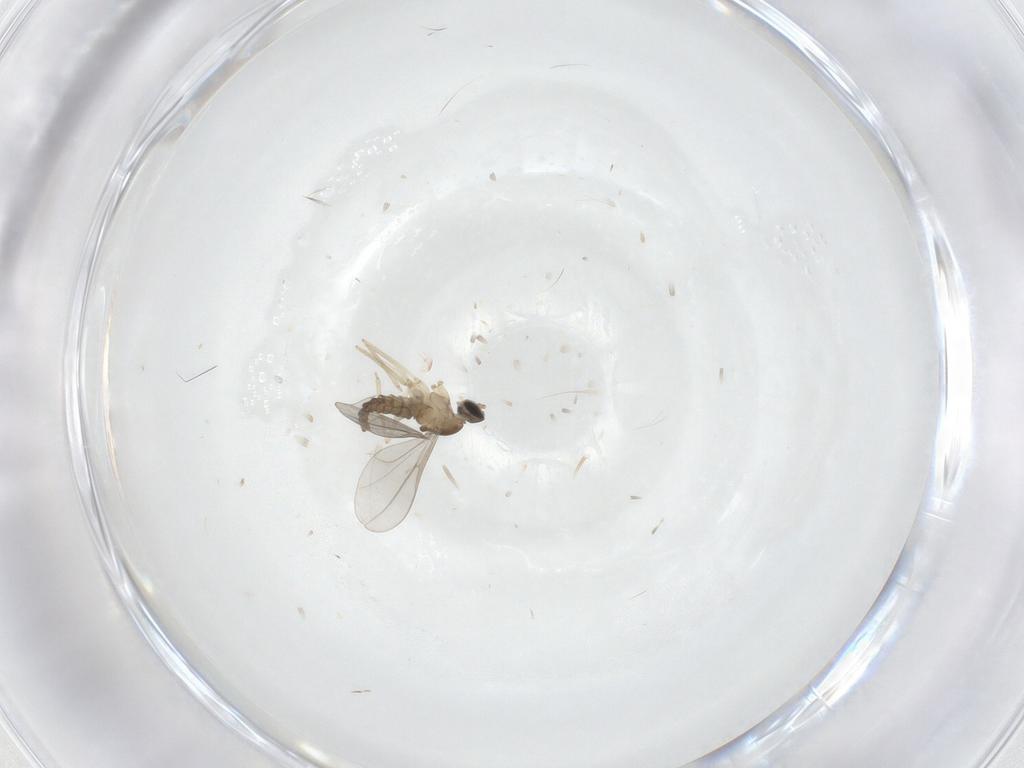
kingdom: Animalia
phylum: Arthropoda
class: Insecta
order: Diptera
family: Cecidomyiidae
